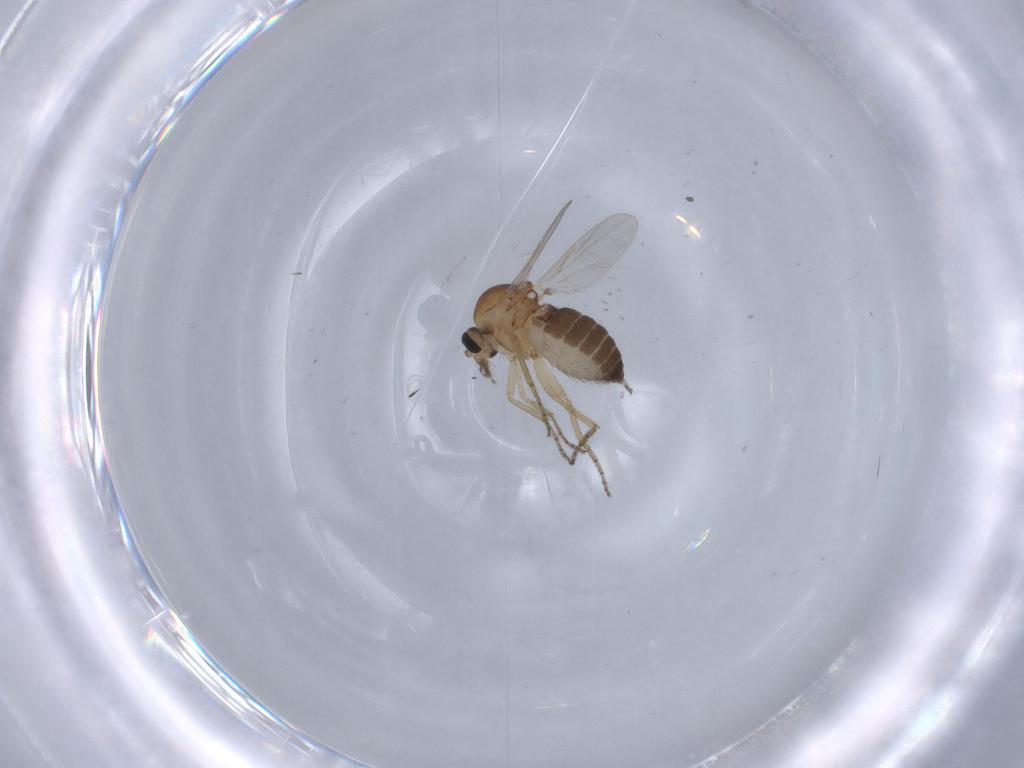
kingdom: Animalia
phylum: Arthropoda
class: Insecta
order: Diptera
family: Ceratopogonidae
